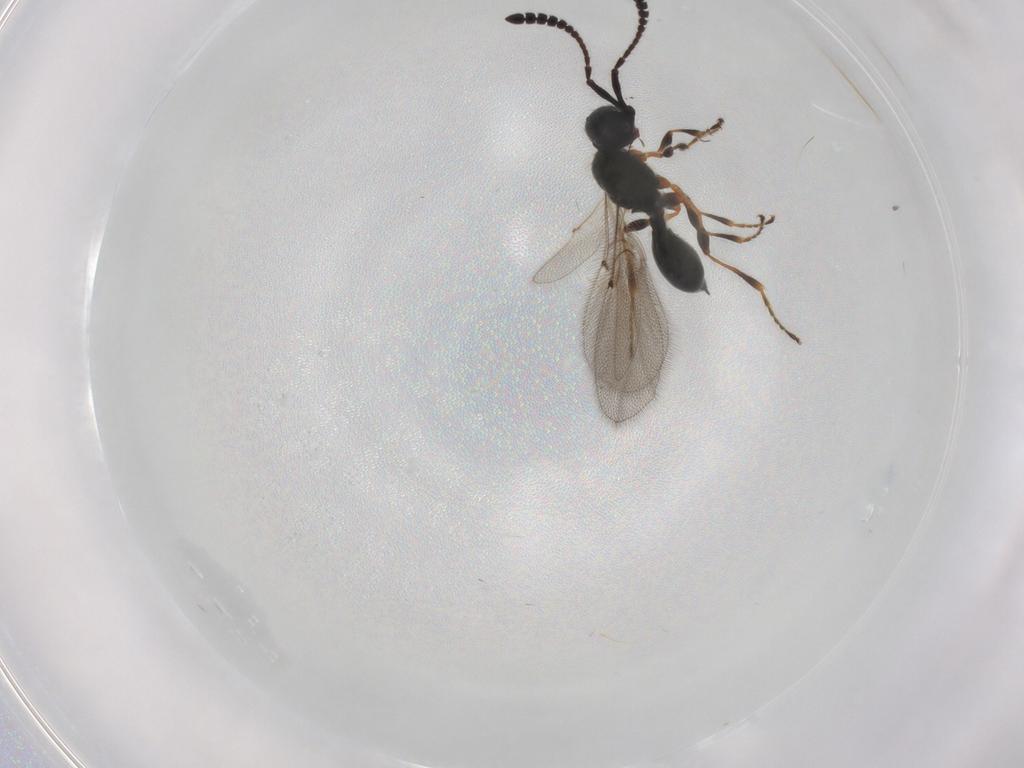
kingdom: Animalia
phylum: Arthropoda
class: Insecta
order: Hymenoptera
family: Diapriidae
